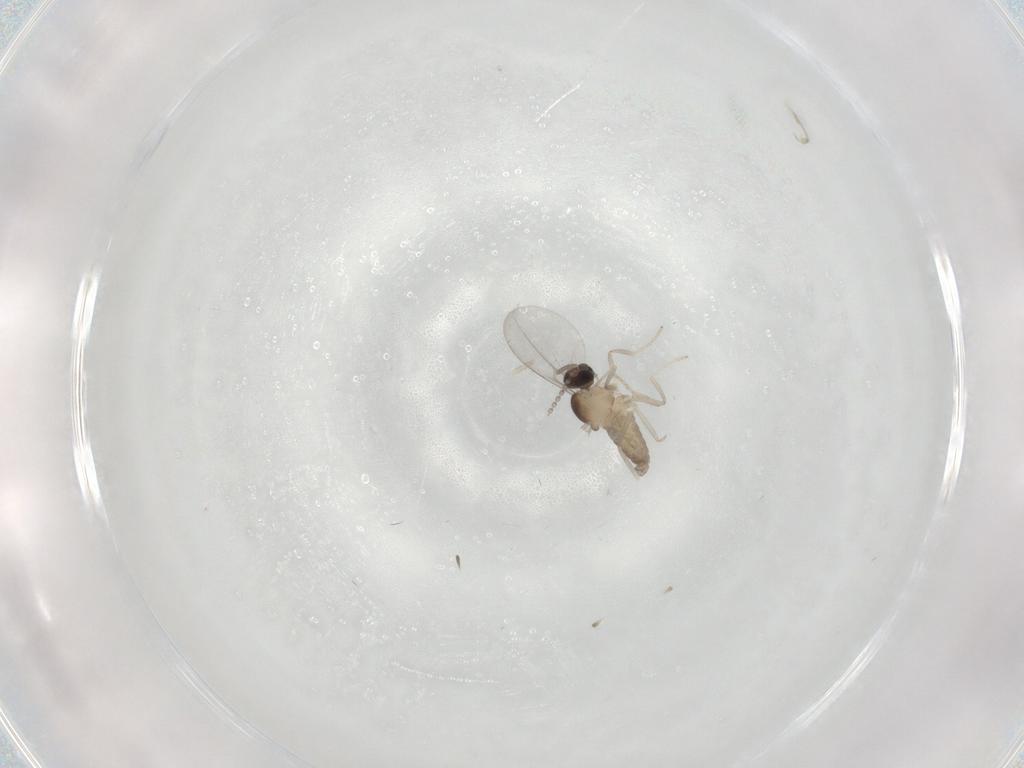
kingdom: Animalia
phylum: Arthropoda
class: Insecta
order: Diptera
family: Cecidomyiidae
